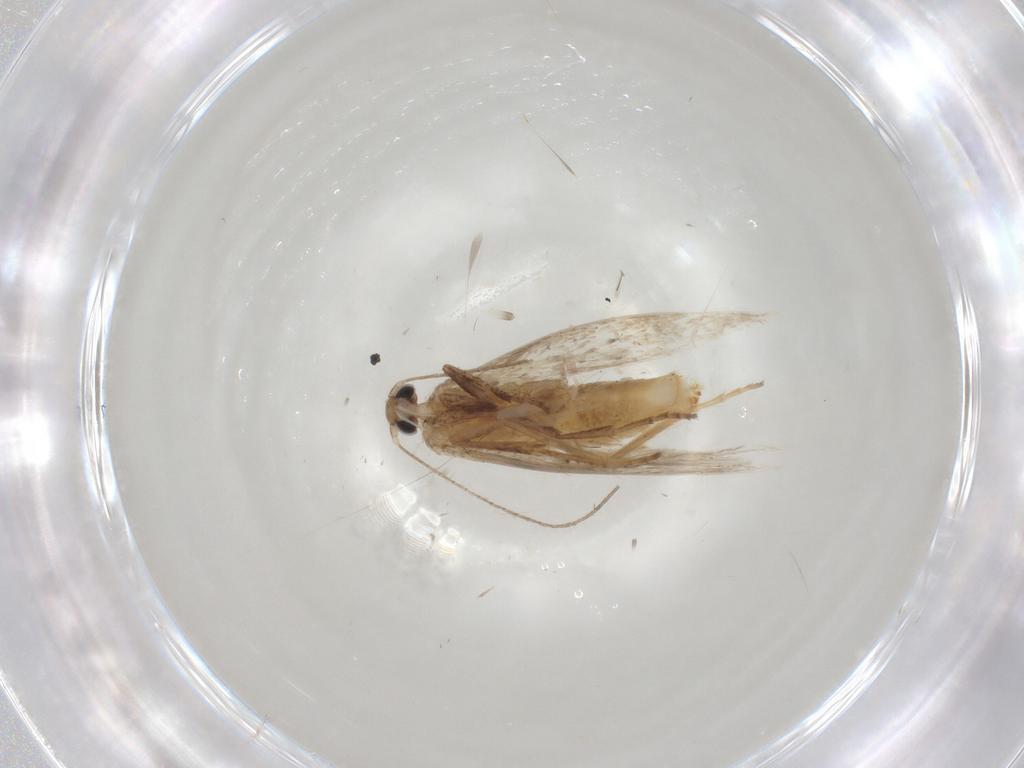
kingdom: Animalia
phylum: Arthropoda
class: Insecta
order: Lepidoptera
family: Tischeriidae
